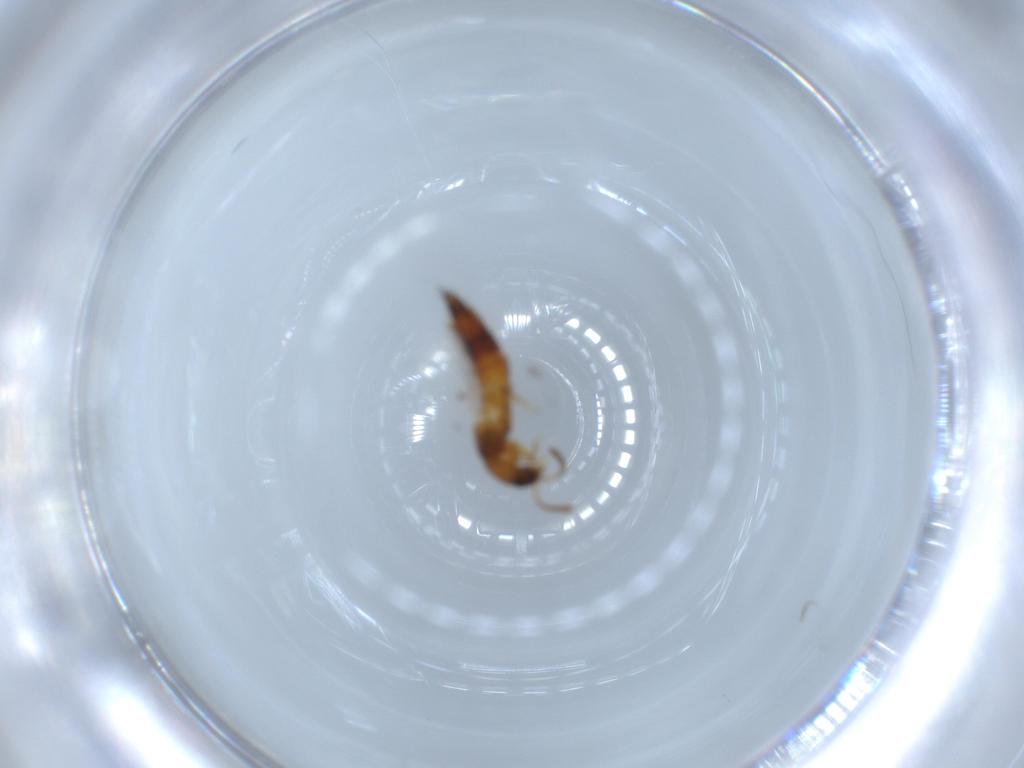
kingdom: Animalia
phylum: Arthropoda
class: Insecta
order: Coleoptera
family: Staphylinidae
